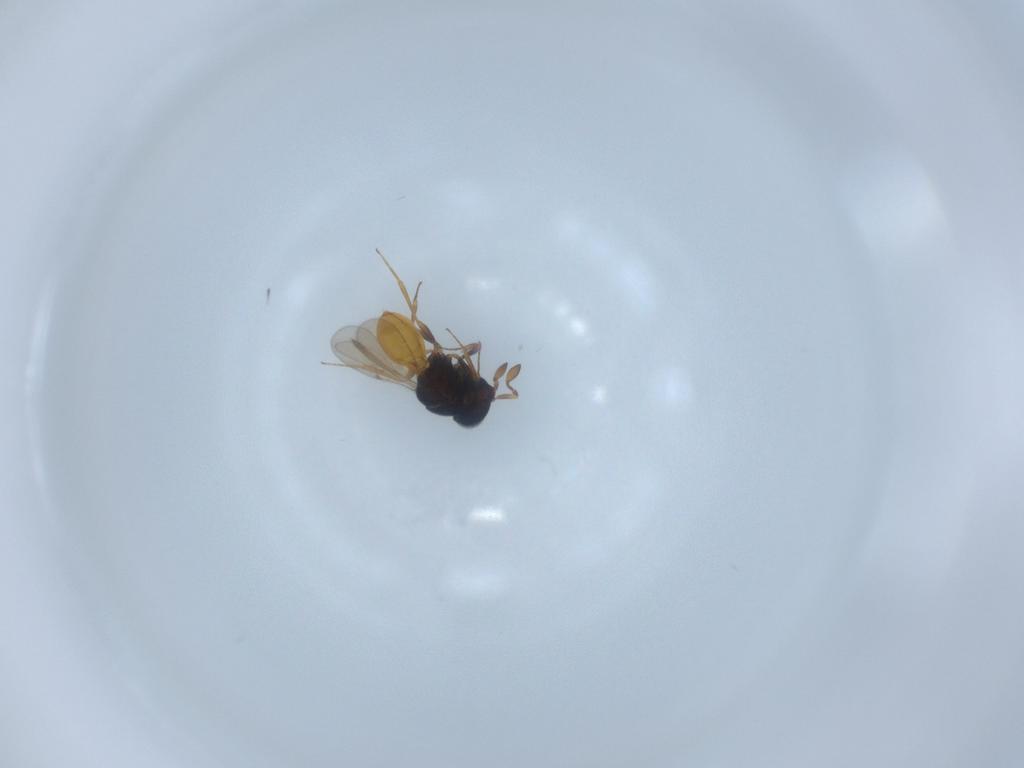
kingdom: Animalia
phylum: Arthropoda
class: Insecta
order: Hymenoptera
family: Scelionidae
